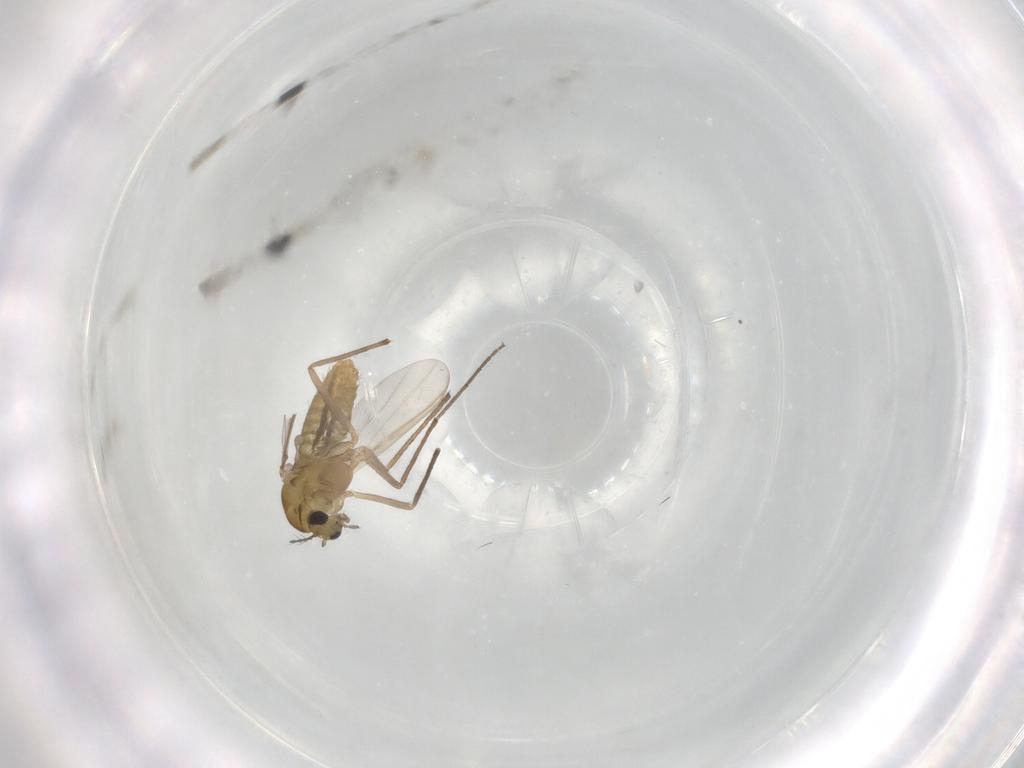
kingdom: Animalia
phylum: Arthropoda
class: Insecta
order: Diptera
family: Chironomidae
